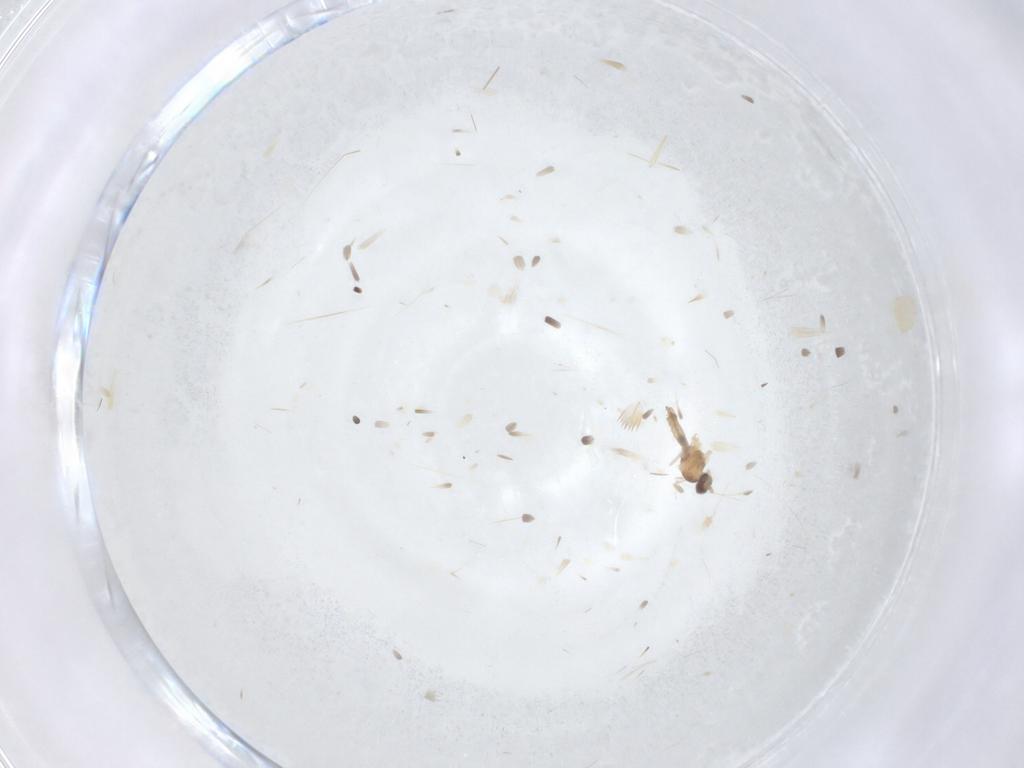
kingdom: Animalia
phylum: Arthropoda
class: Insecta
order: Diptera
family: Cecidomyiidae
